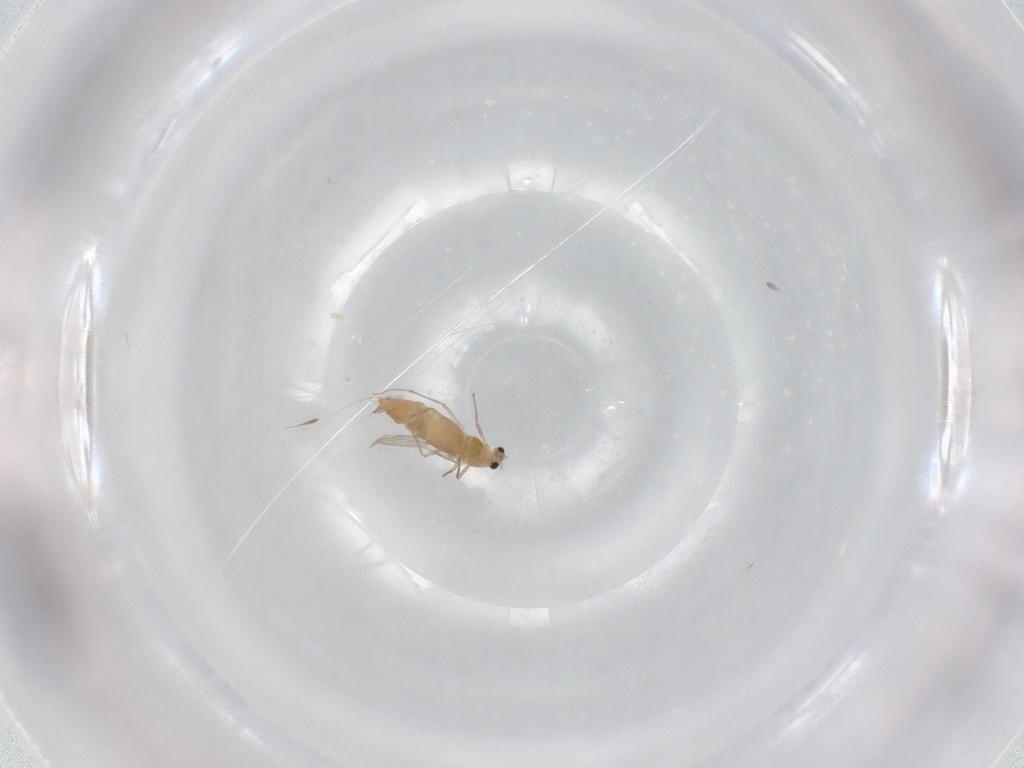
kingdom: Animalia
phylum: Arthropoda
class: Insecta
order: Diptera
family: Chironomidae
